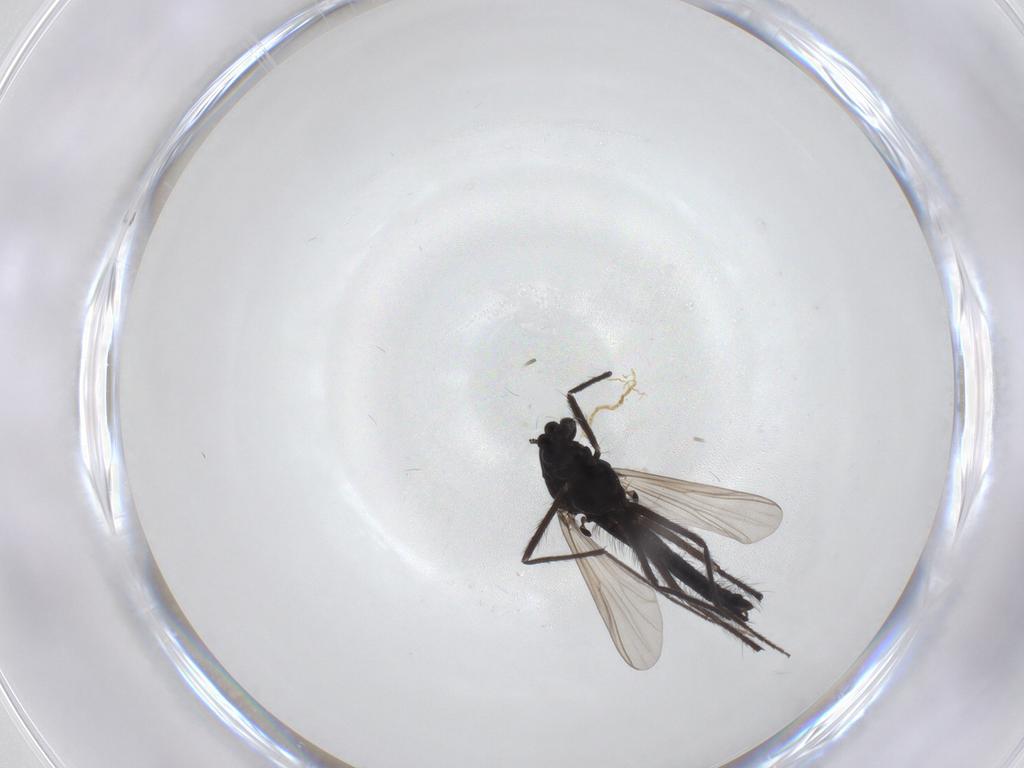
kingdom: Animalia
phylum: Arthropoda
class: Insecta
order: Diptera
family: Chironomidae
